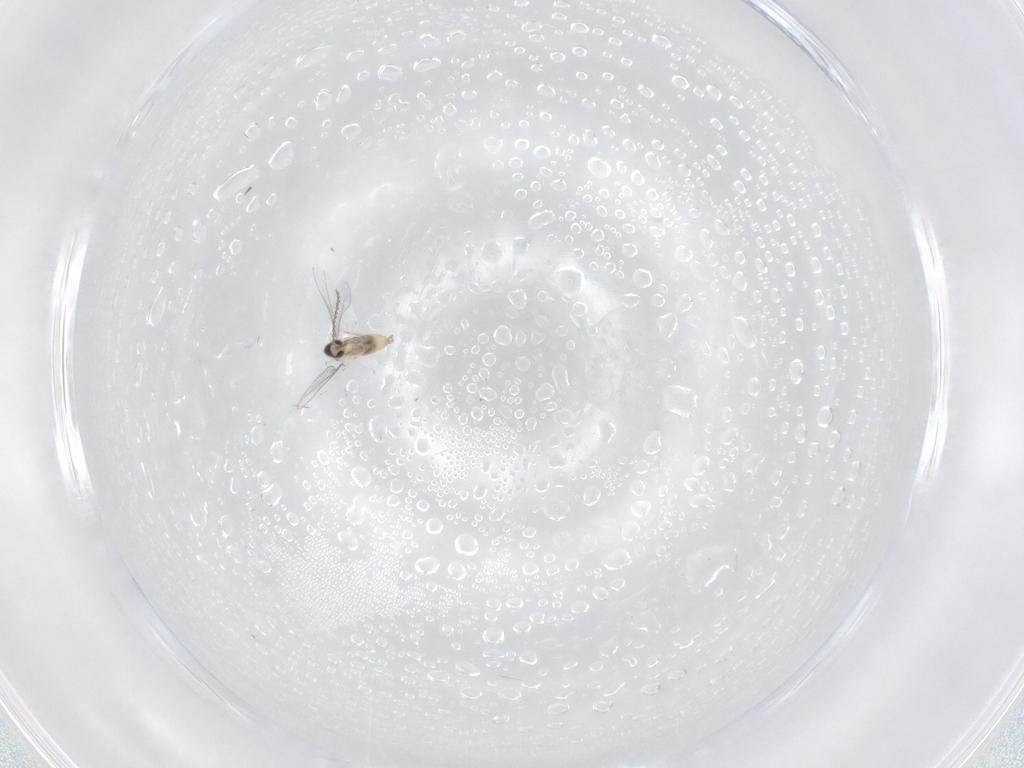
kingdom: Animalia
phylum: Arthropoda
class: Insecta
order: Diptera
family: Cecidomyiidae
